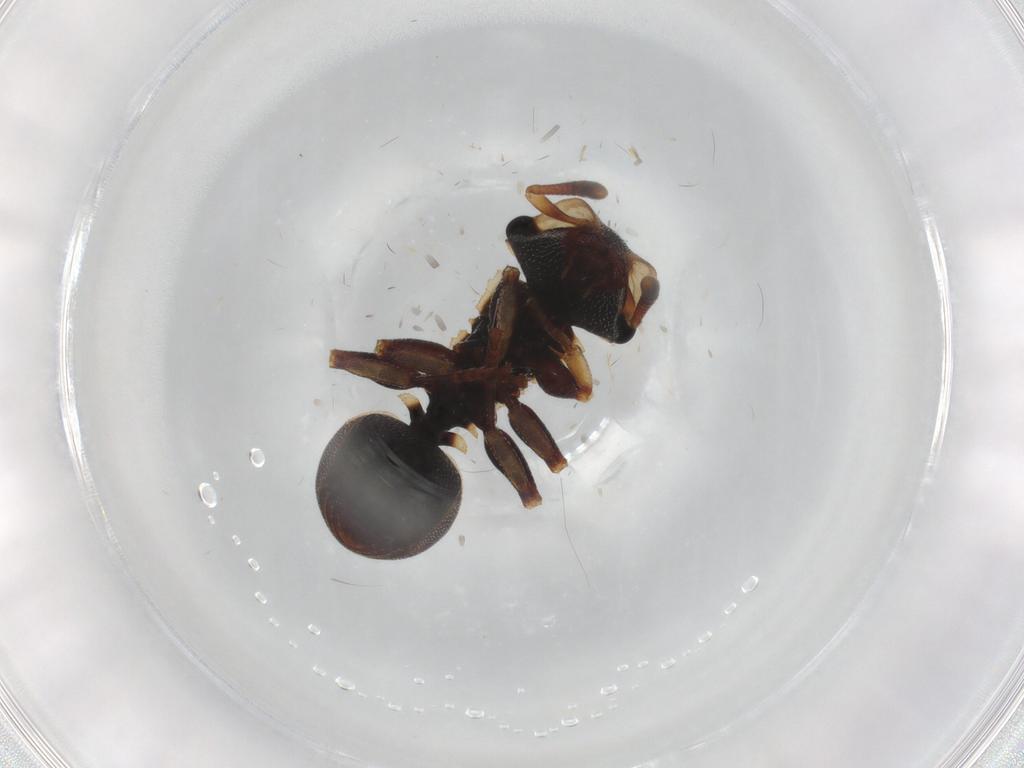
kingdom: Animalia
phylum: Arthropoda
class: Insecta
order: Hymenoptera
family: Formicidae
